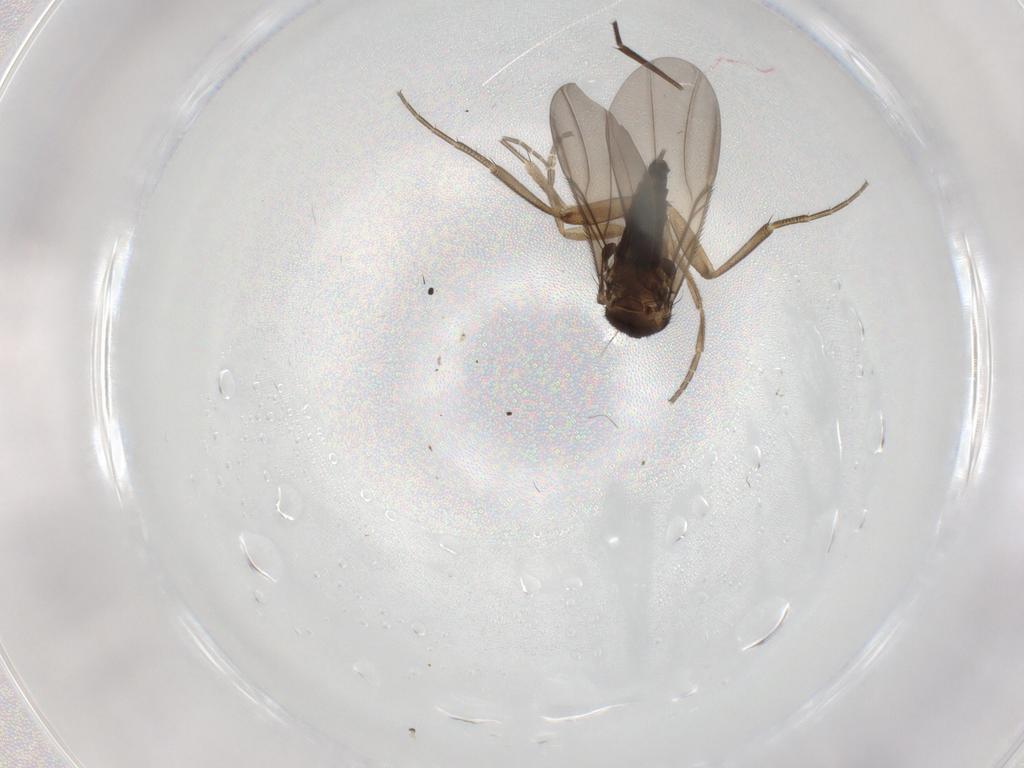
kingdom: Animalia
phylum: Arthropoda
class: Insecta
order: Diptera
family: Phoridae
